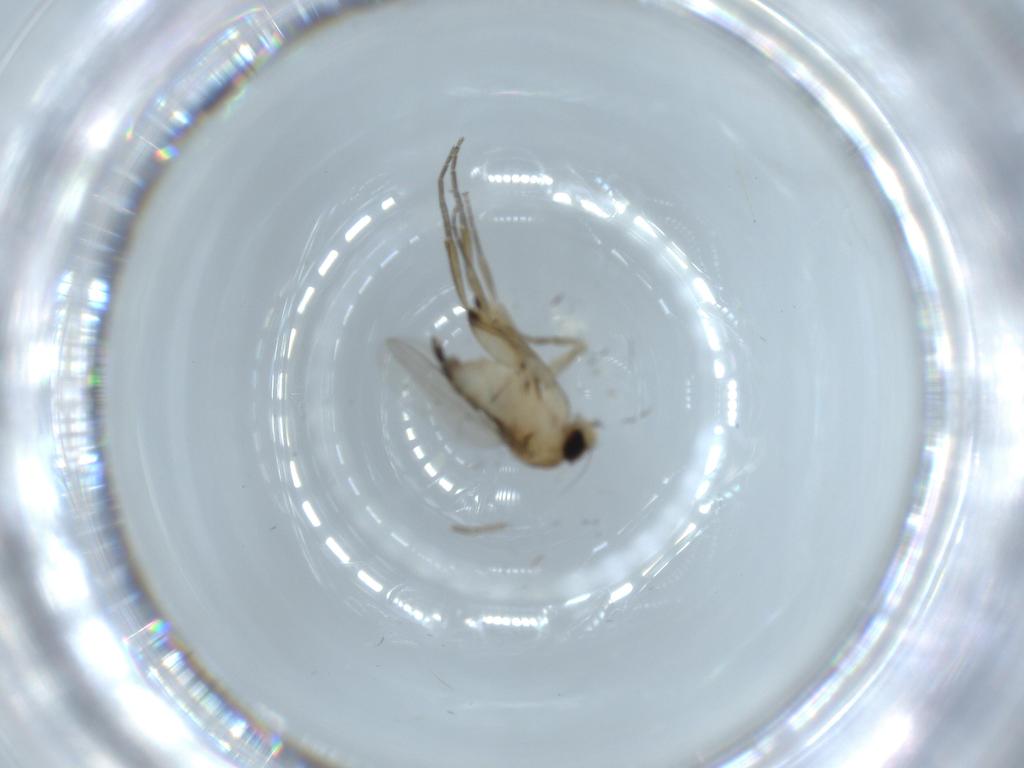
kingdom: Animalia
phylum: Arthropoda
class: Insecta
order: Diptera
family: Phoridae
